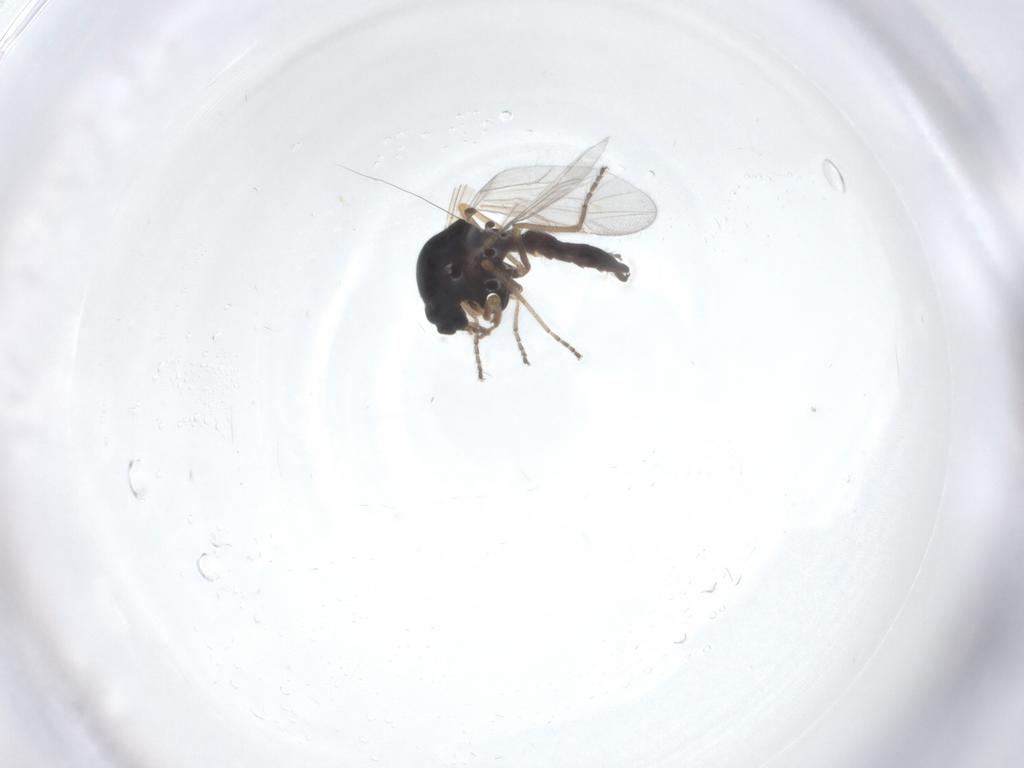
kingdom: Animalia
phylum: Arthropoda
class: Insecta
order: Diptera
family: Ceratopogonidae
